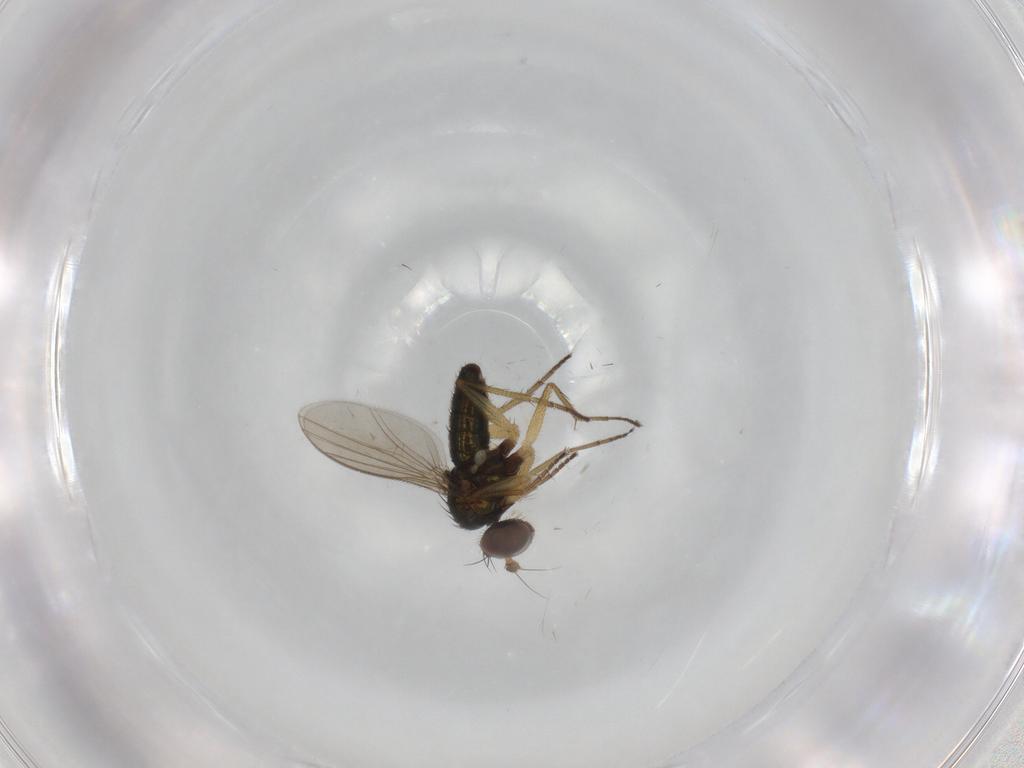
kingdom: Animalia
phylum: Arthropoda
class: Insecta
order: Diptera
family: Dolichopodidae
